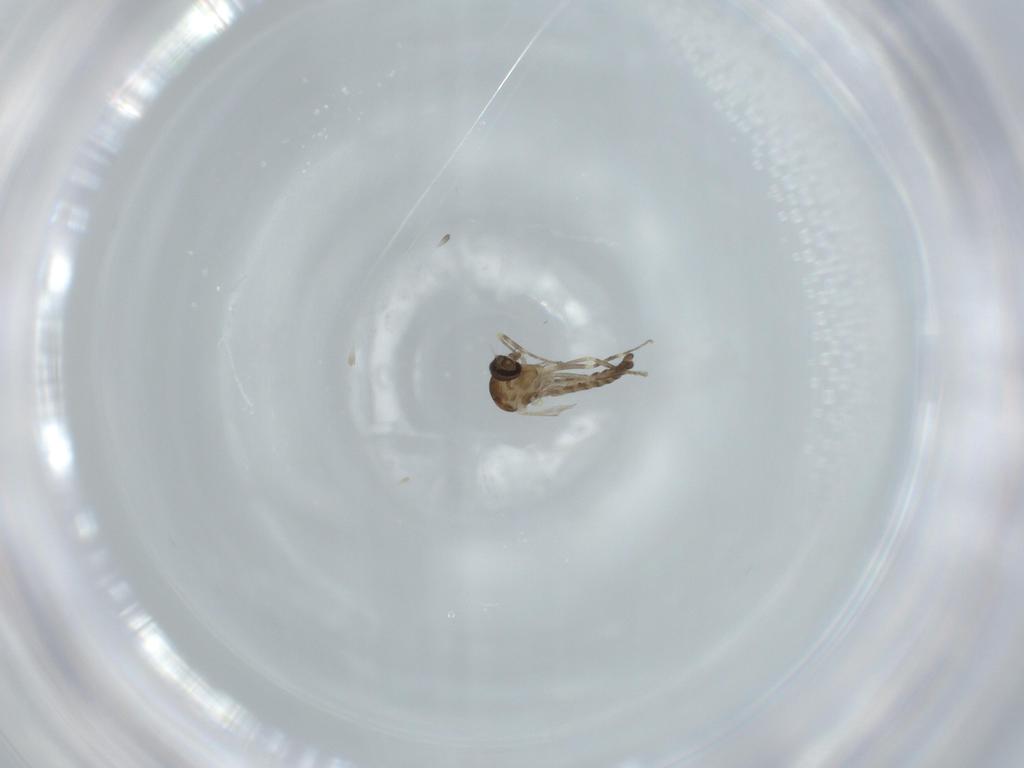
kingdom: Animalia
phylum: Arthropoda
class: Insecta
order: Diptera
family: Ceratopogonidae
